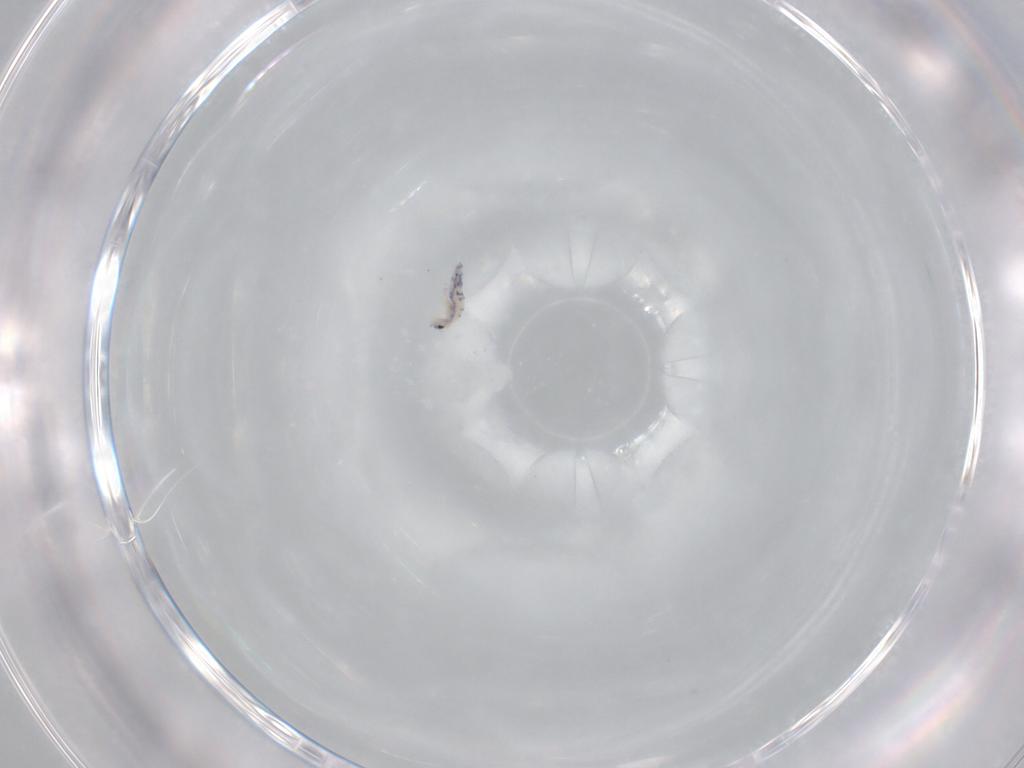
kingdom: Animalia
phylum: Arthropoda
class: Collembola
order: Entomobryomorpha
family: Entomobryidae
